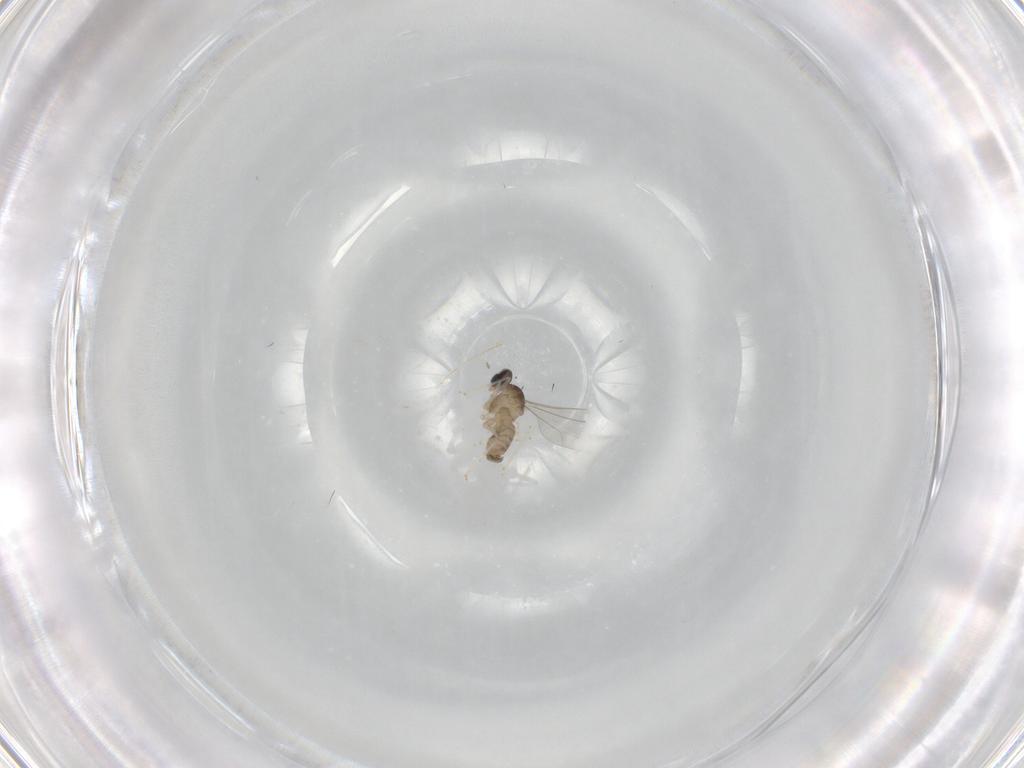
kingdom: Animalia
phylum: Arthropoda
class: Insecta
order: Diptera
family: Cecidomyiidae
